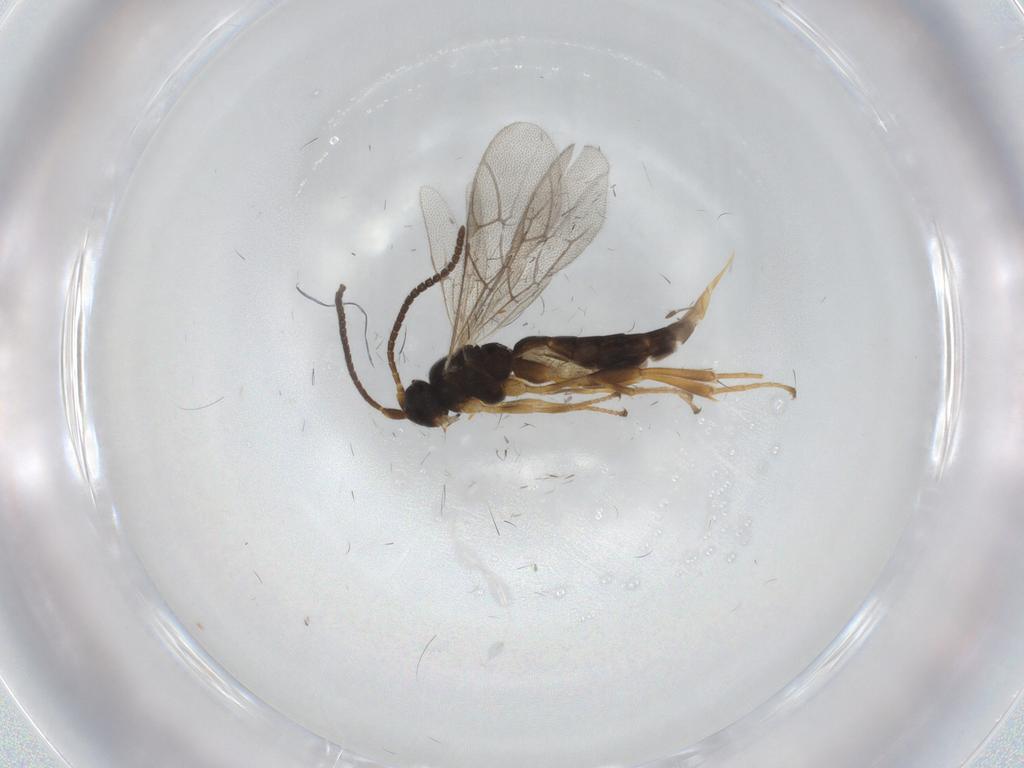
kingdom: Animalia
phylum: Arthropoda
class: Insecta
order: Hymenoptera
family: Ichneumonidae
